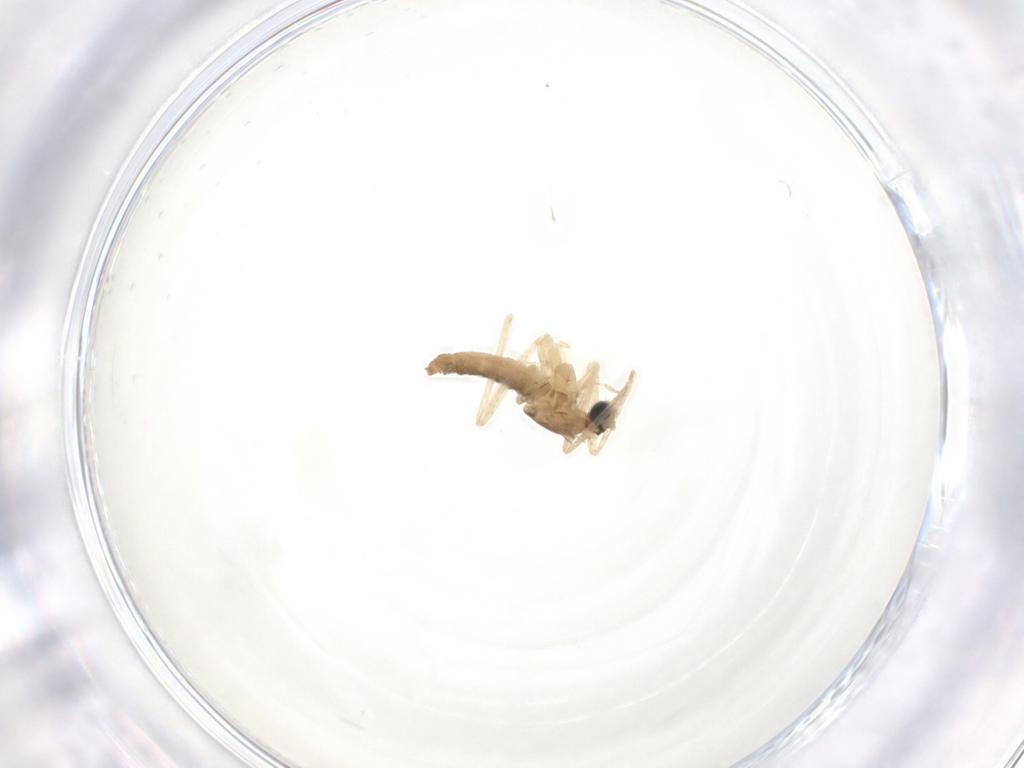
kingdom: Animalia
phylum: Arthropoda
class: Insecta
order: Diptera
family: Cecidomyiidae
